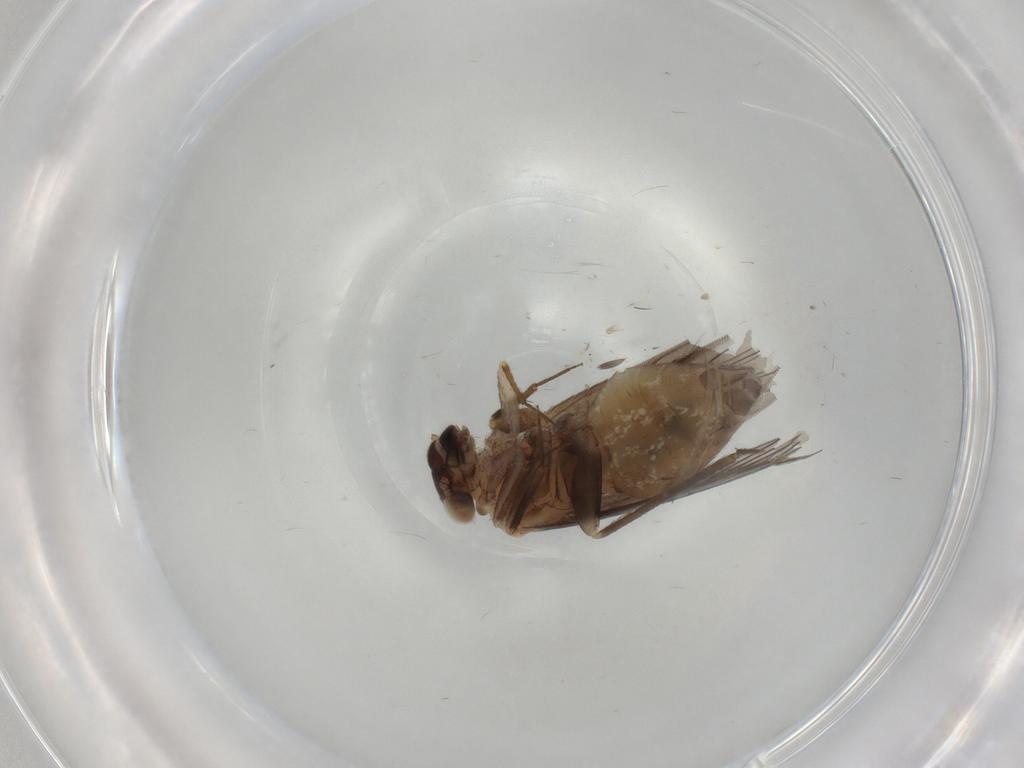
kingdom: Animalia
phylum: Arthropoda
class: Insecta
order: Psocodea
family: Lepidopsocidae
